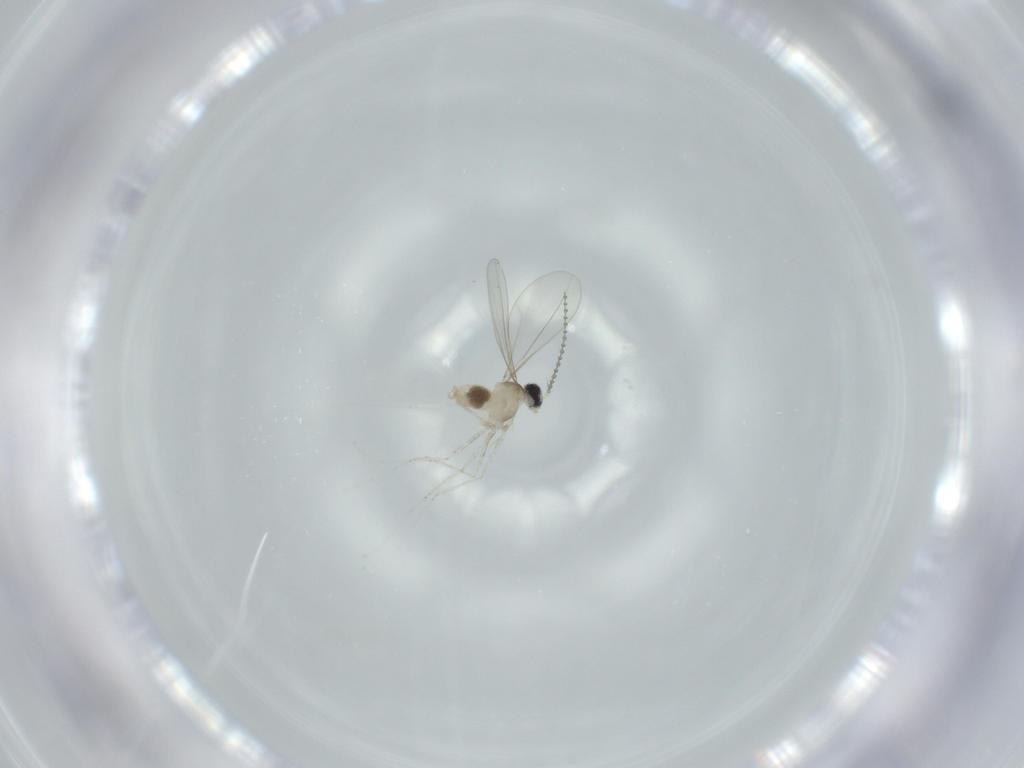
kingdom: Animalia
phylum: Arthropoda
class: Insecta
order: Diptera
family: Cecidomyiidae
